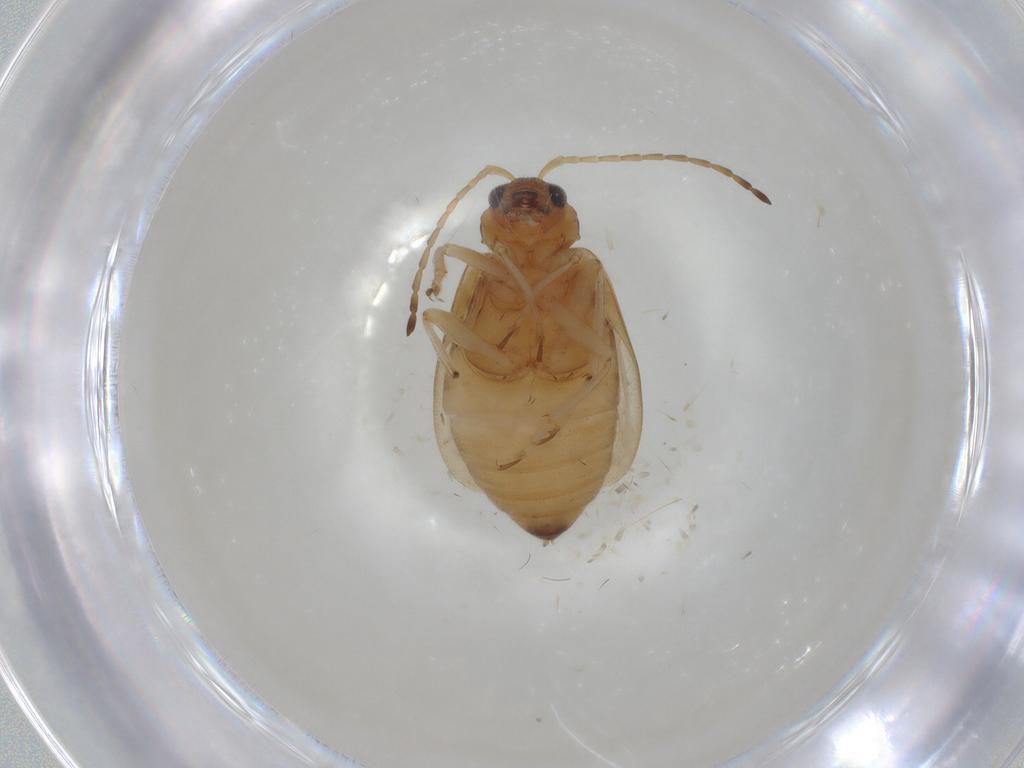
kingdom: Animalia
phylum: Arthropoda
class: Insecta
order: Coleoptera
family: Chrysomelidae
